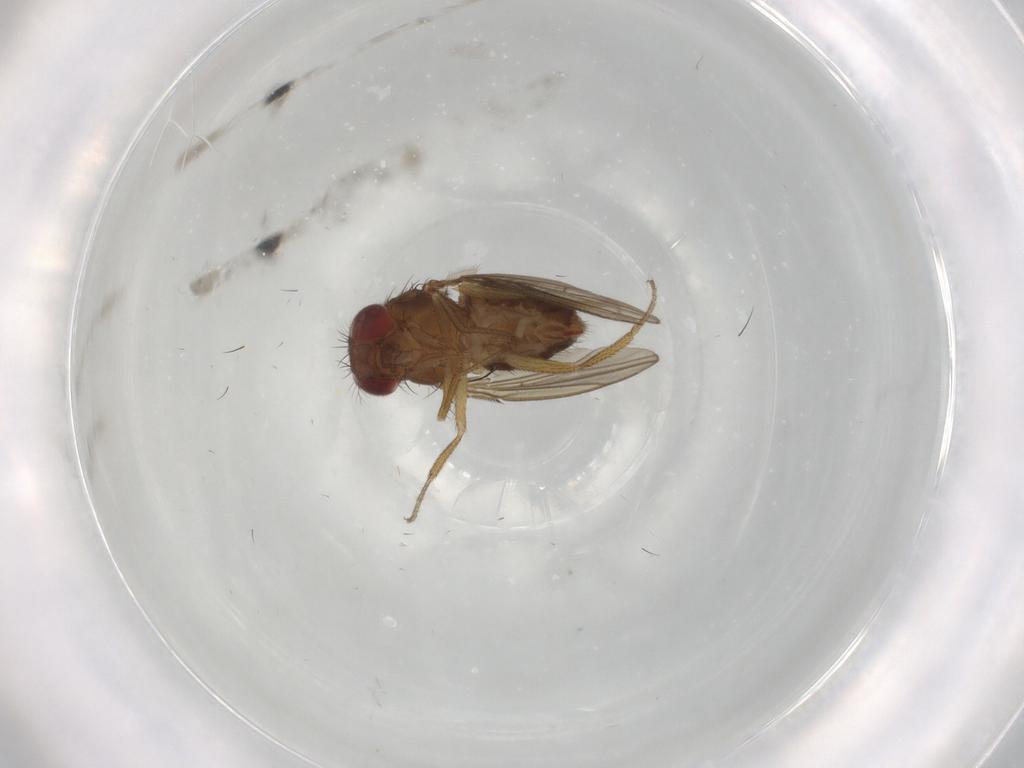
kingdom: Animalia
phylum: Arthropoda
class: Insecta
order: Diptera
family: Drosophilidae
